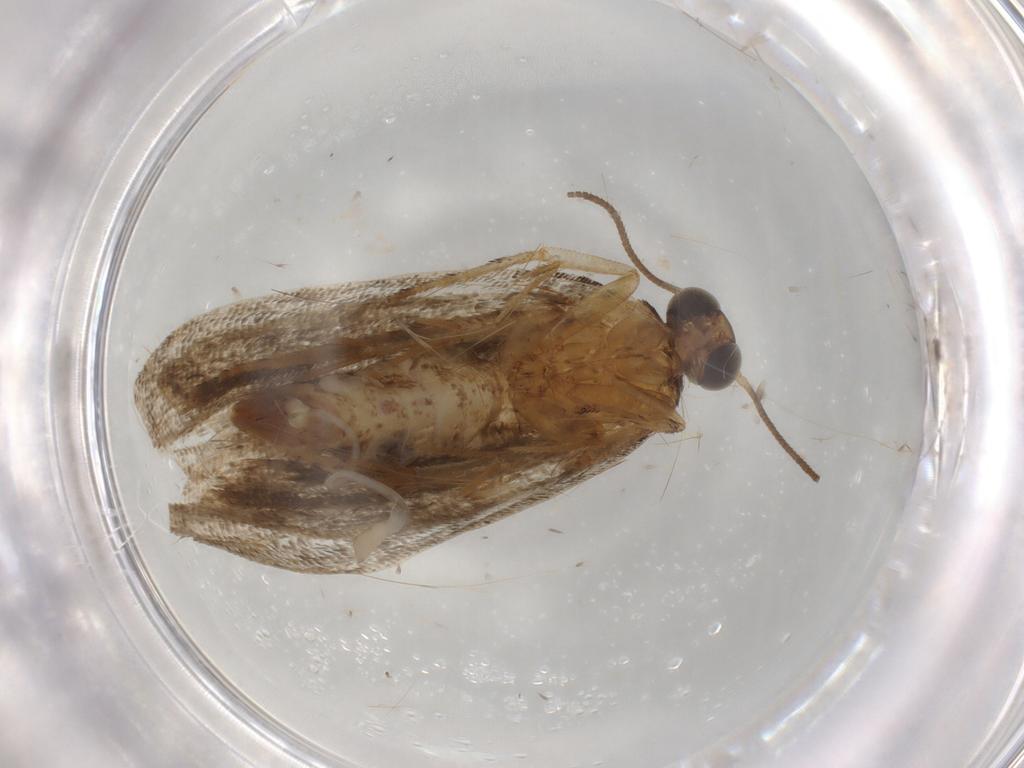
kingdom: Animalia
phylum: Arthropoda
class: Insecta
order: Lepidoptera
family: Tortricidae
